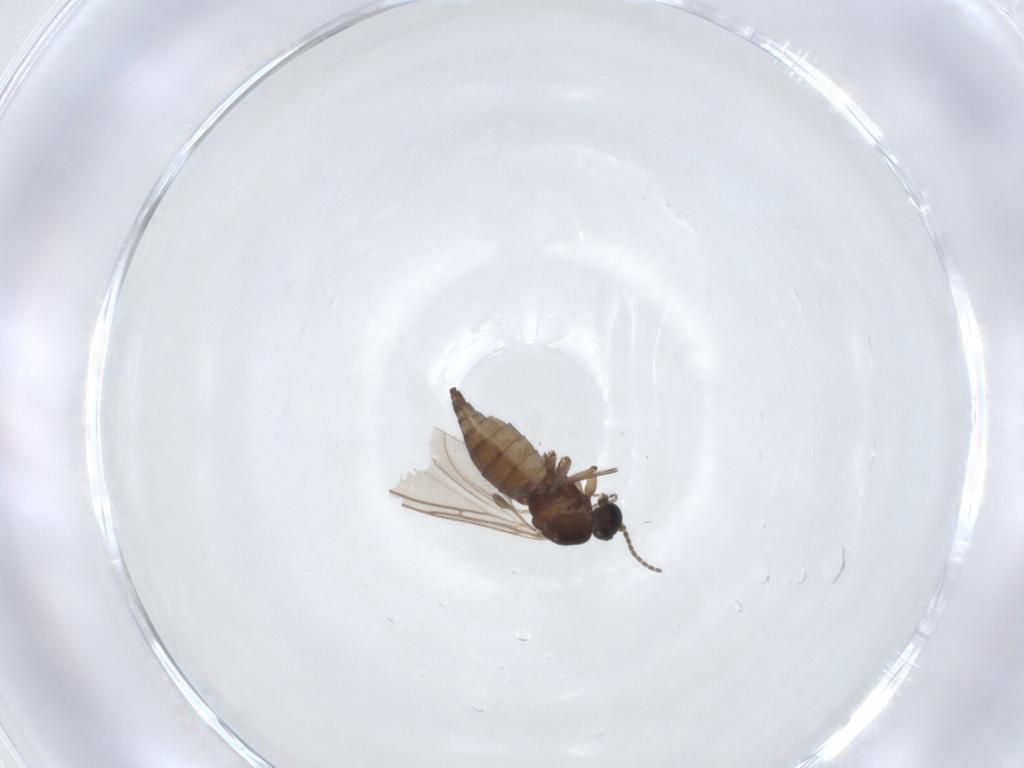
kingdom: Animalia
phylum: Arthropoda
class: Insecta
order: Diptera
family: Sciaridae
